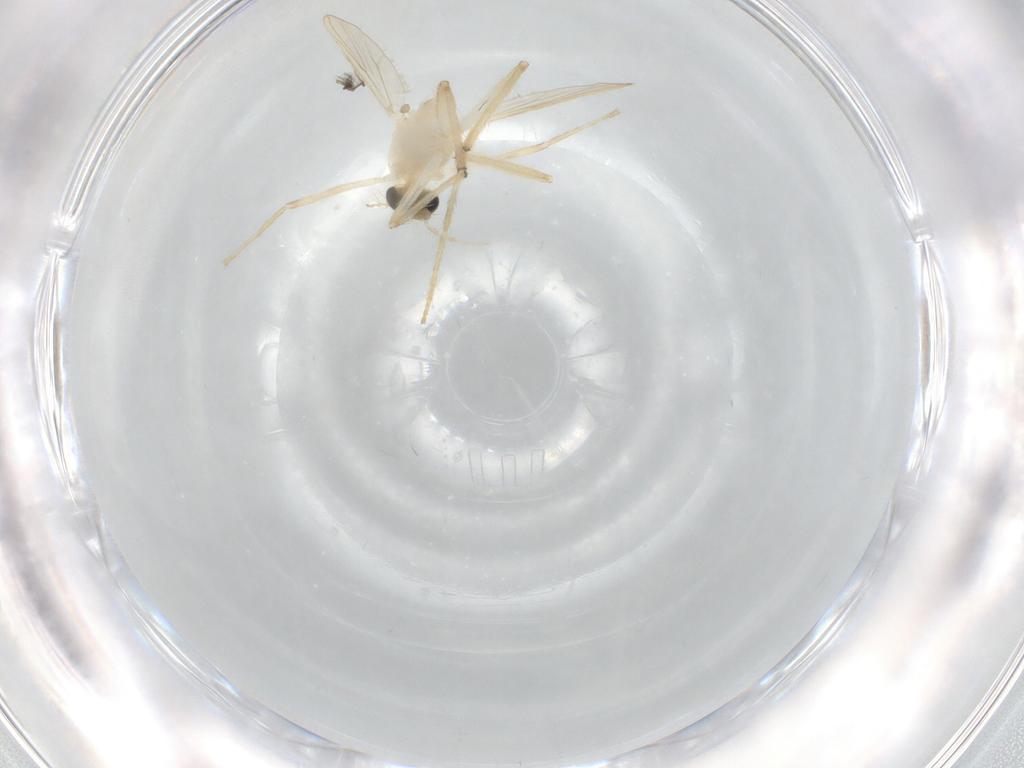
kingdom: Animalia
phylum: Arthropoda
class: Insecta
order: Diptera
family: Chironomidae
